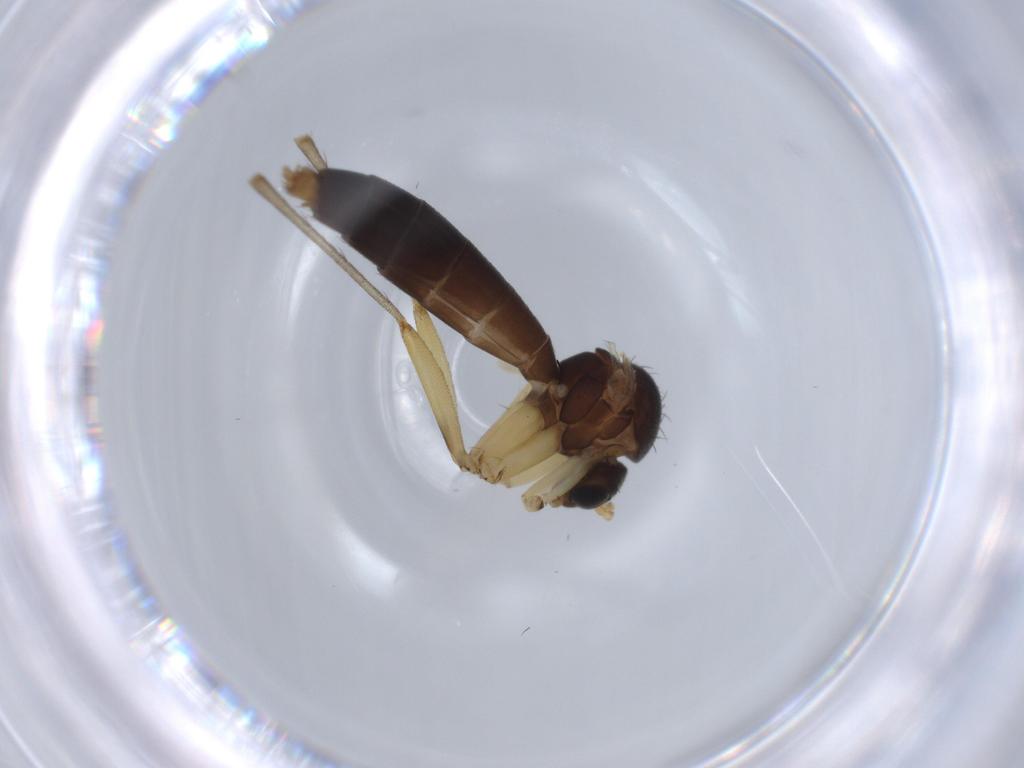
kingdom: Animalia
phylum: Arthropoda
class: Insecta
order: Diptera
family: Empididae
